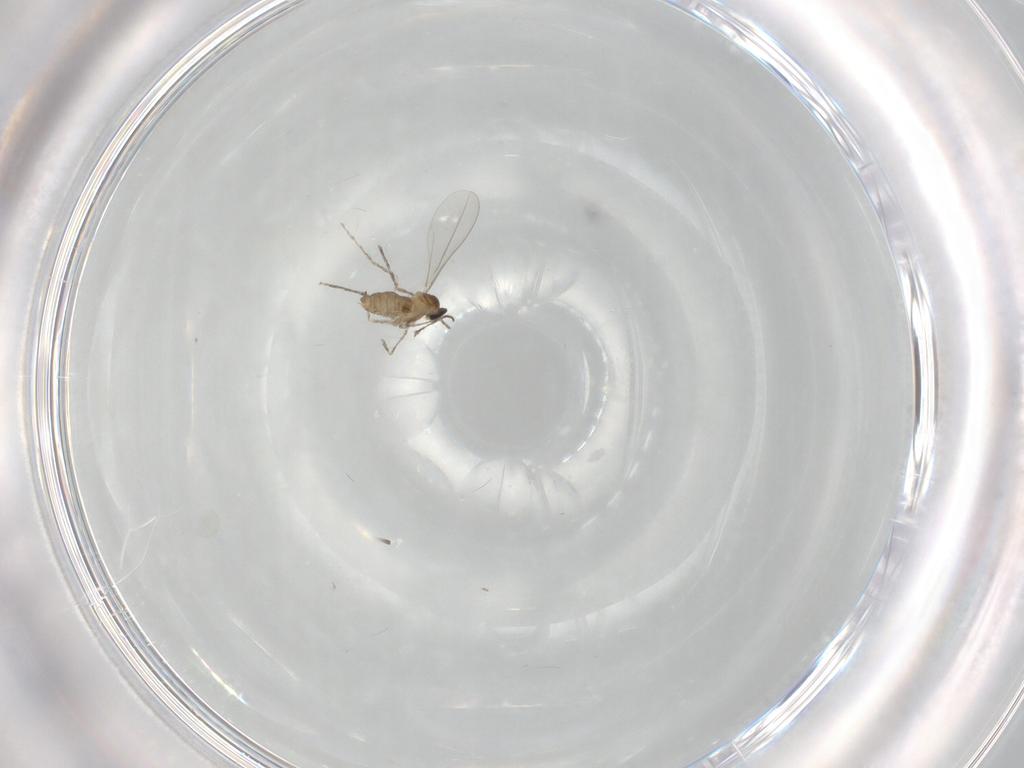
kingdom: Animalia
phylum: Arthropoda
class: Insecta
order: Diptera
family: Cecidomyiidae
